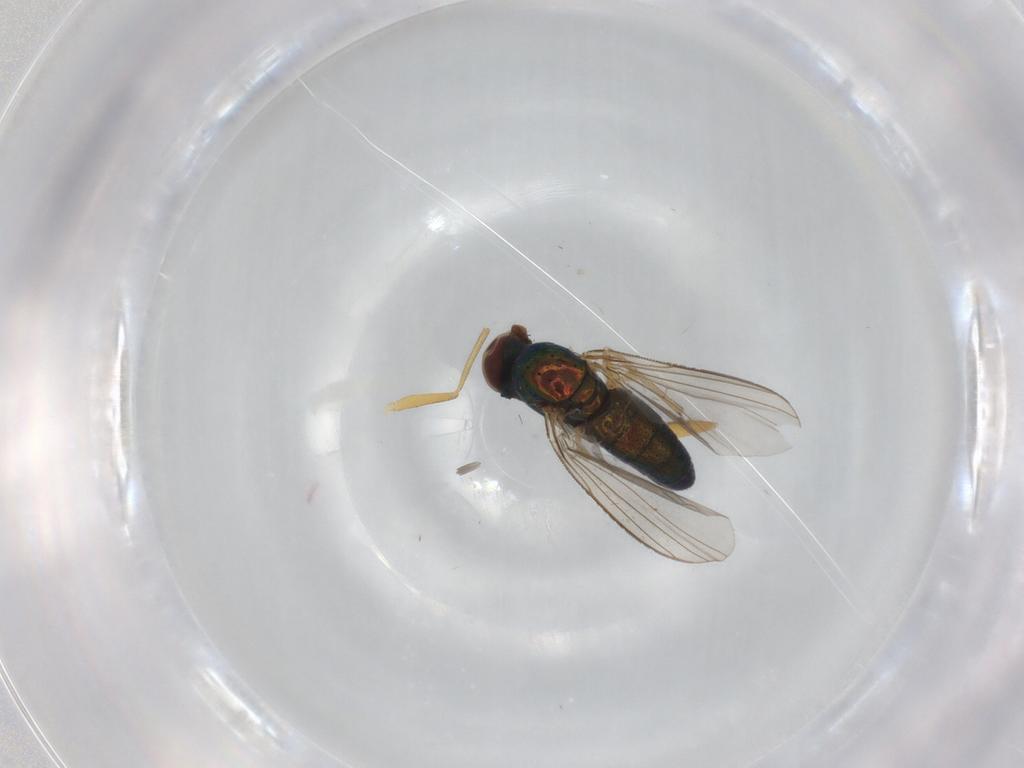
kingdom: Animalia
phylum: Arthropoda
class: Insecta
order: Diptera
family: Dolichopodidae
